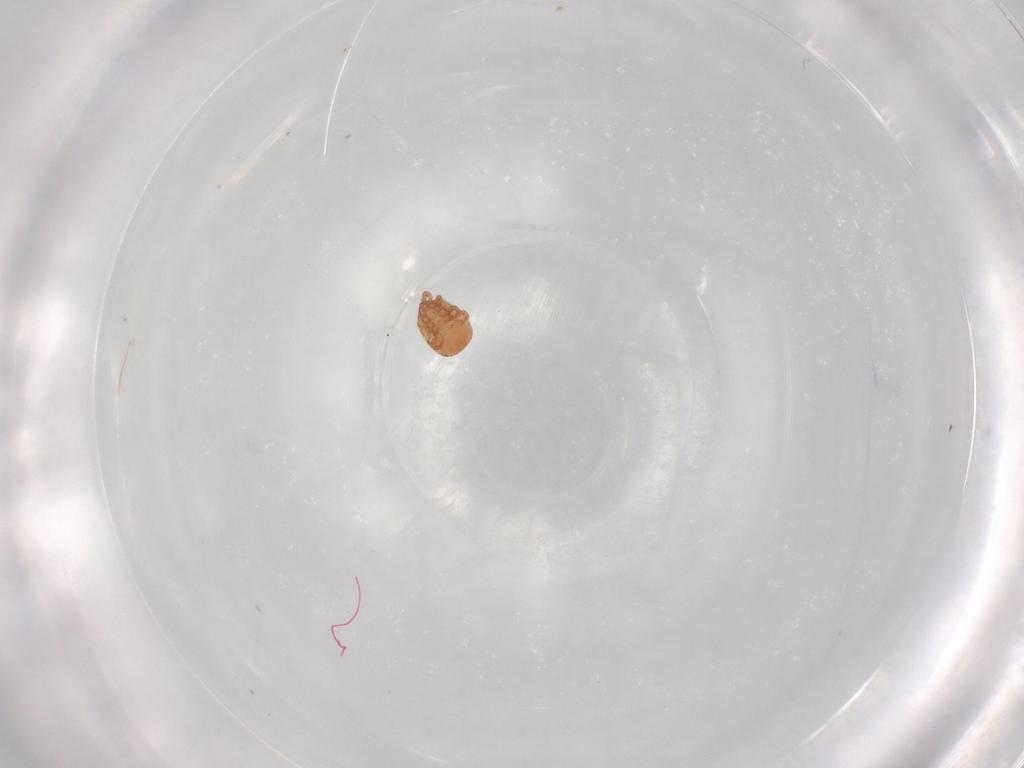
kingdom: Animalia
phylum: Arthropoda
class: Arachnida
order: Mesostigmata
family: Zerconidae
